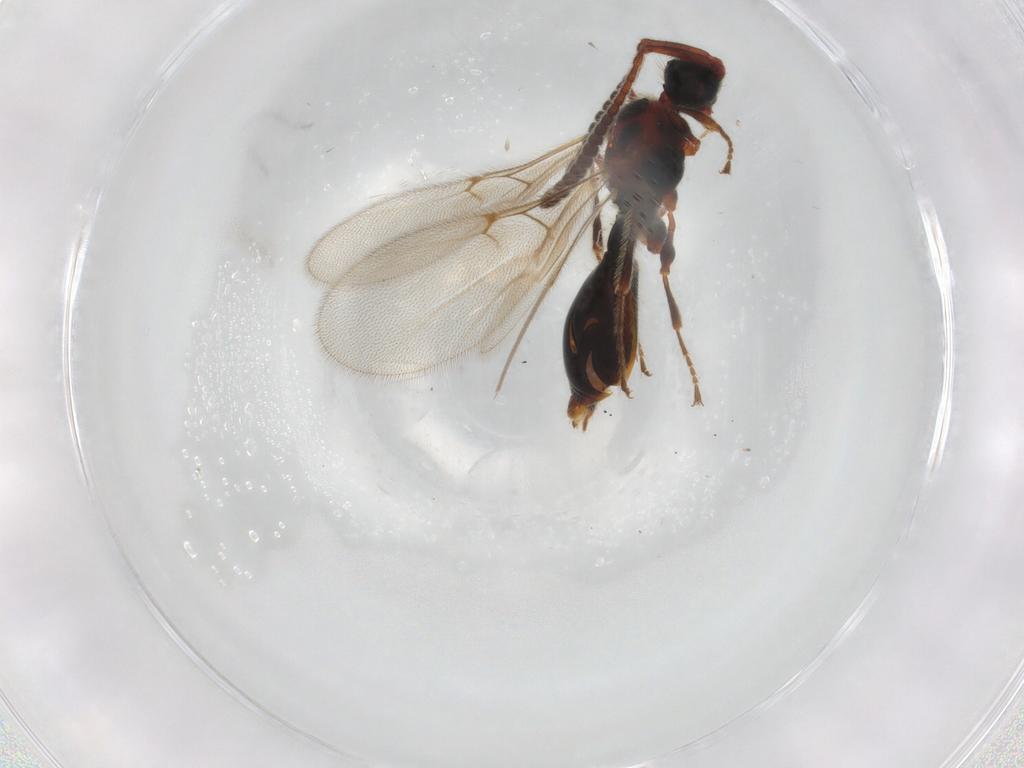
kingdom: Animalia
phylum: Arthropoda
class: Insecta
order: Hymenoptera
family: Diapriidae
